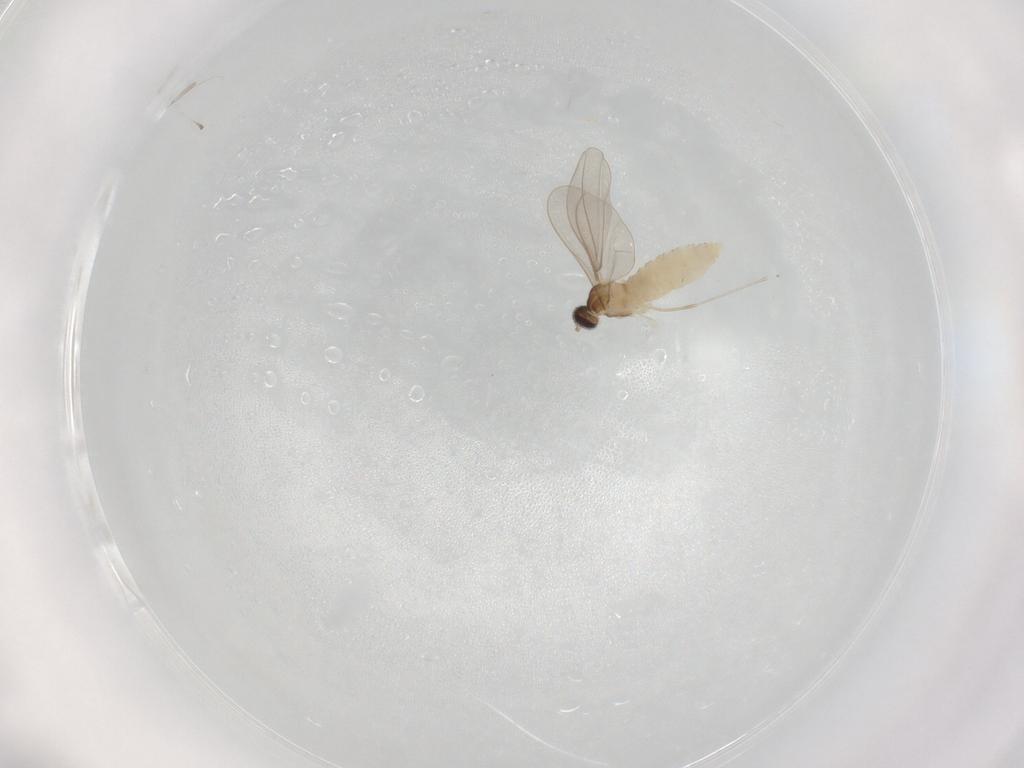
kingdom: Animalia
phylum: Arthropoda
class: Insecta
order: Diptera
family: Cecidomyiidae
